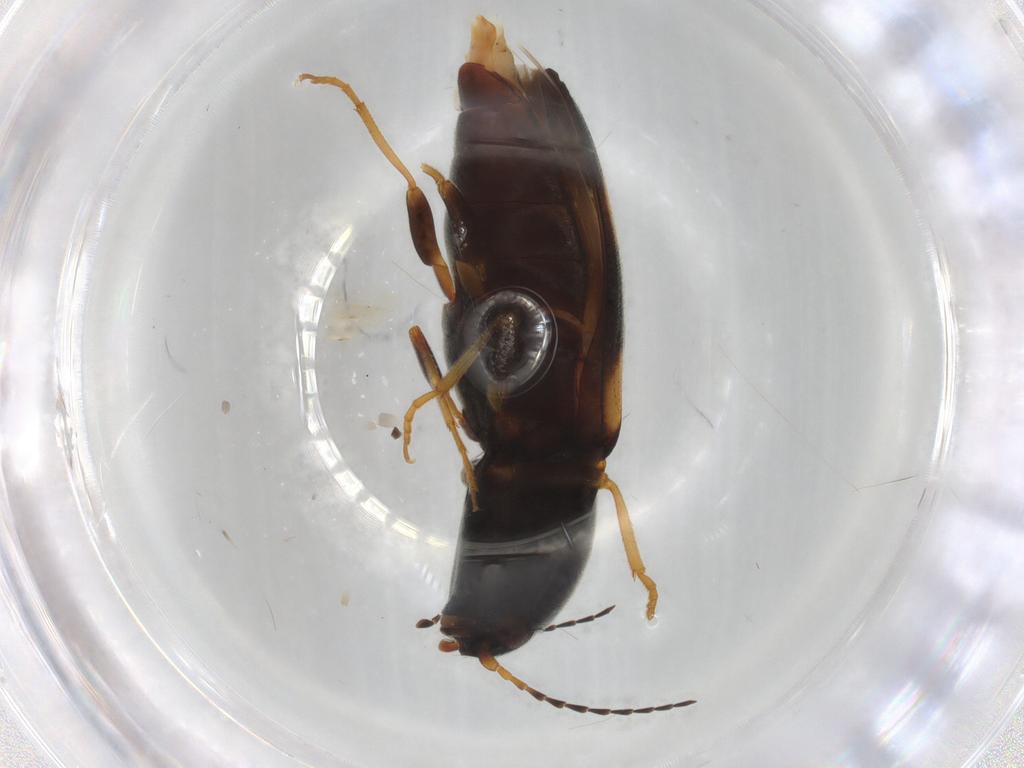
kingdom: Animalia
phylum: Arthropoda
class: Insecta
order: Coleoptera
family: Elateridae
